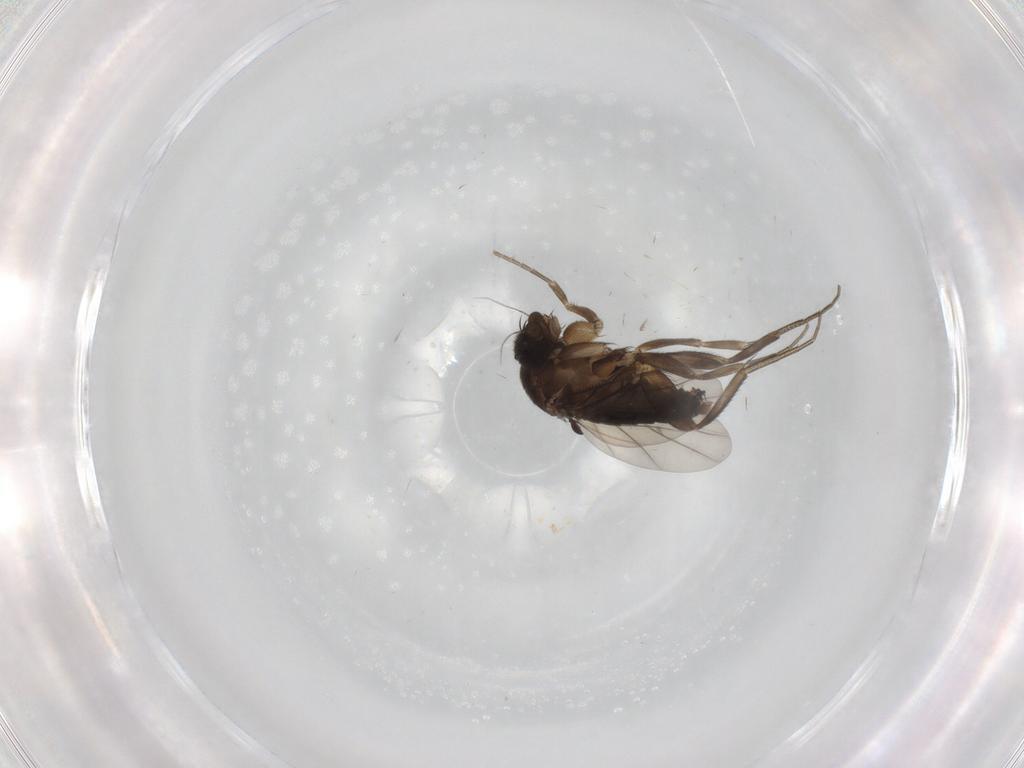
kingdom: Animalia
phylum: Arthropoda
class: Insecta
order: Diptera
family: Phoridae
